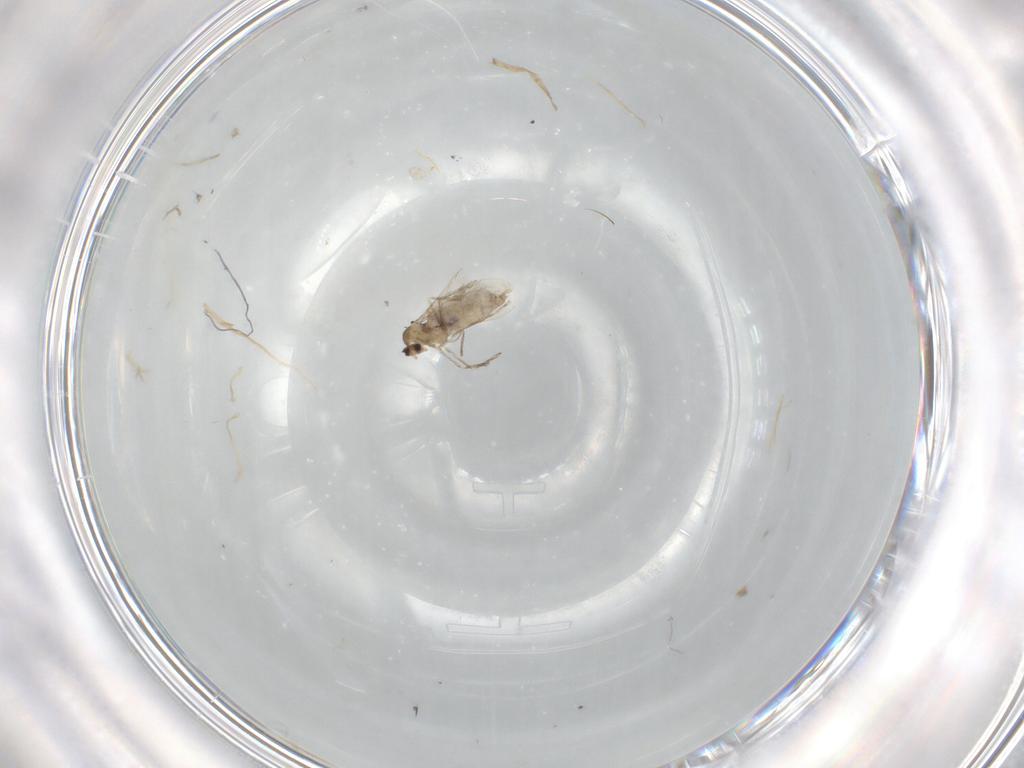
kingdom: Animalia
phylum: Arthropoda
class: Insecta
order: Diptera
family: Cecidomyiidae
